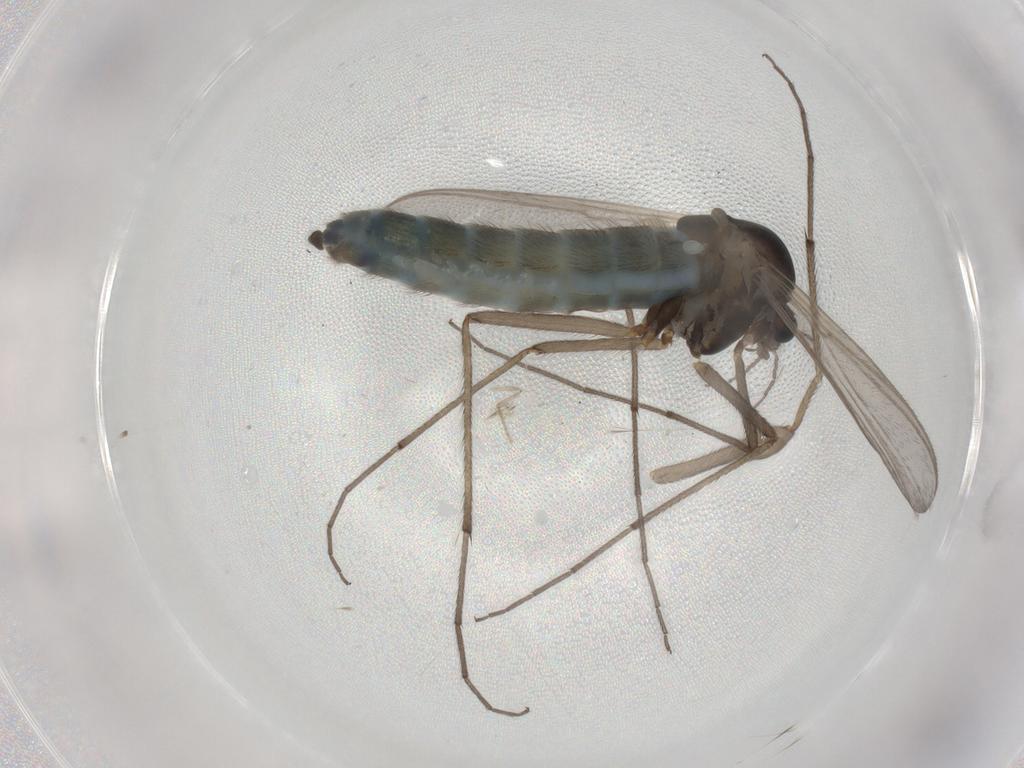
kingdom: Animalia
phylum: Arthropoda
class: Insecta
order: Diptera
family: Chironomidae
